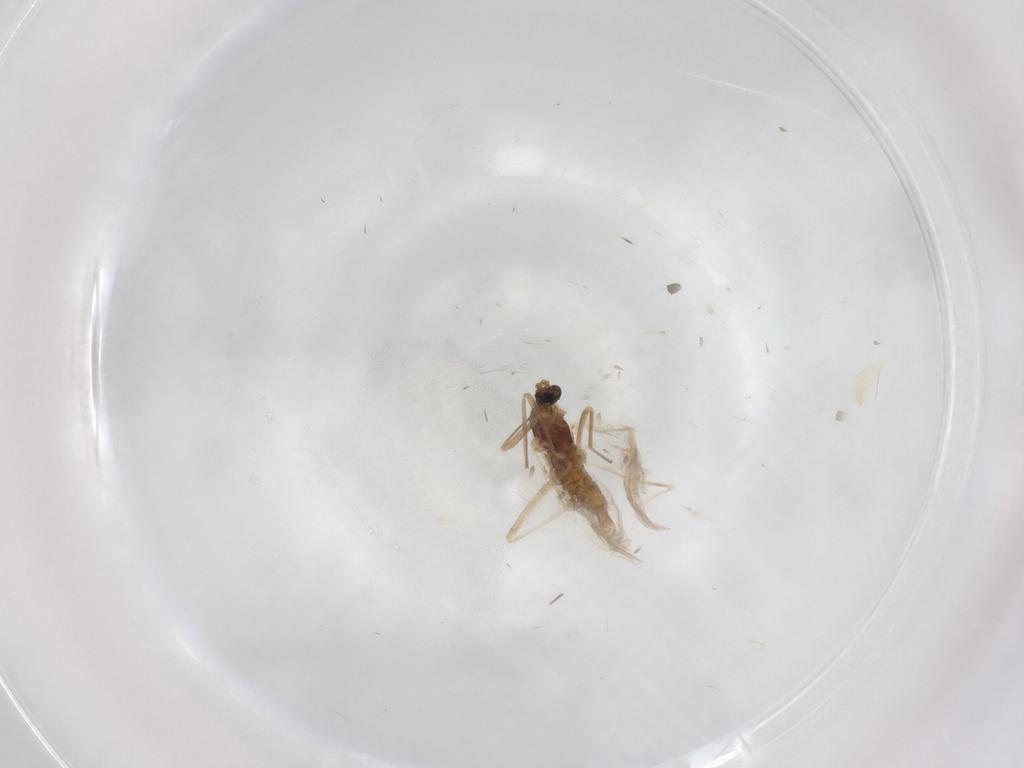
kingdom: Animalia
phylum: Arthropoda
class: Insecta
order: Diptera
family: Cecidomyiidae
